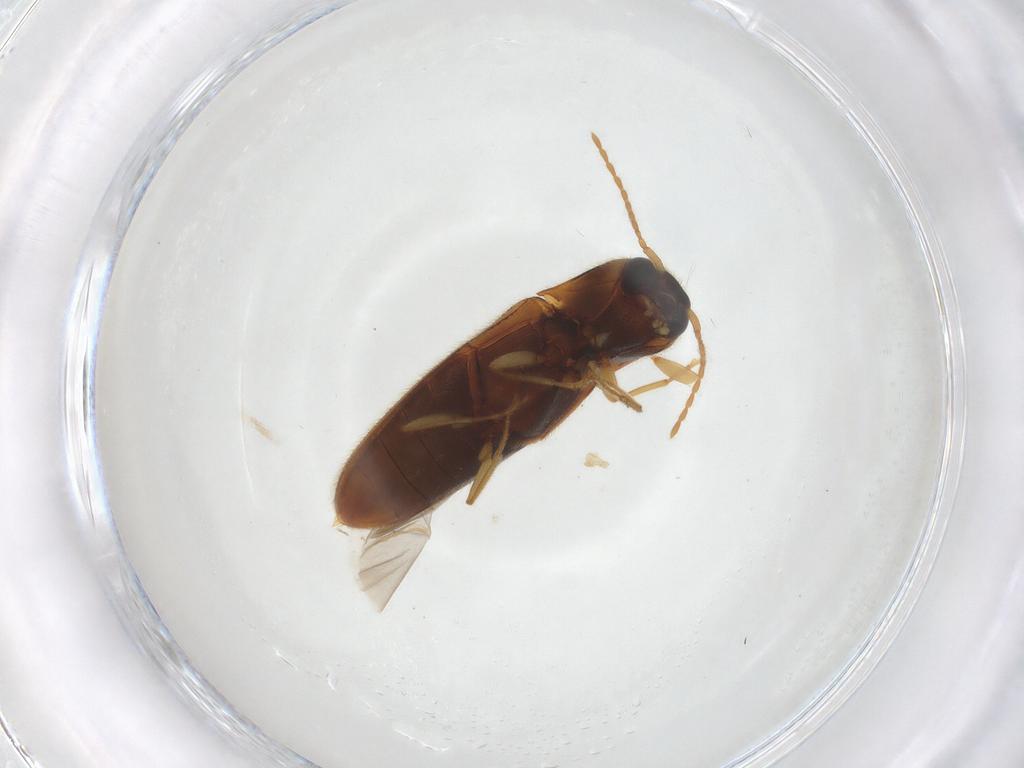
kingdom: Animalia
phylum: Arthropoda
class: Insecta
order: Coleoptera
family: Elateridae
